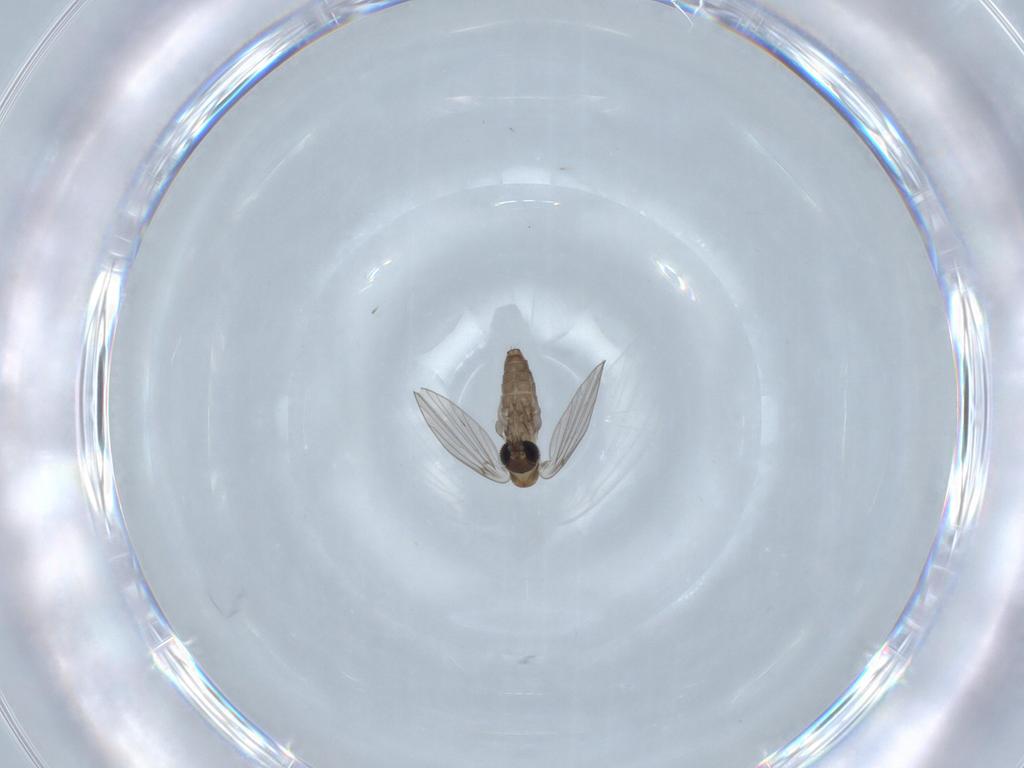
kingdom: Animalia
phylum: Arthropoda
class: Insecta
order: Diptera
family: Psychodidae
